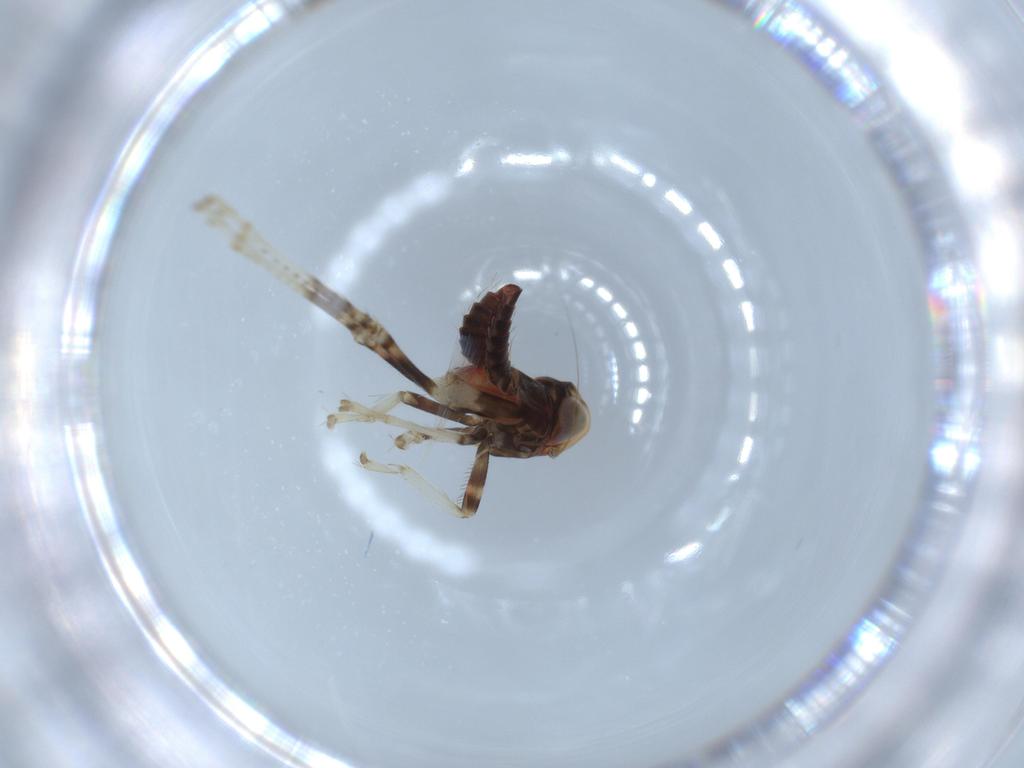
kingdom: Animalia
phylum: Arthropoda
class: Insecta
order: Hemiptera
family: Cicadellidae
